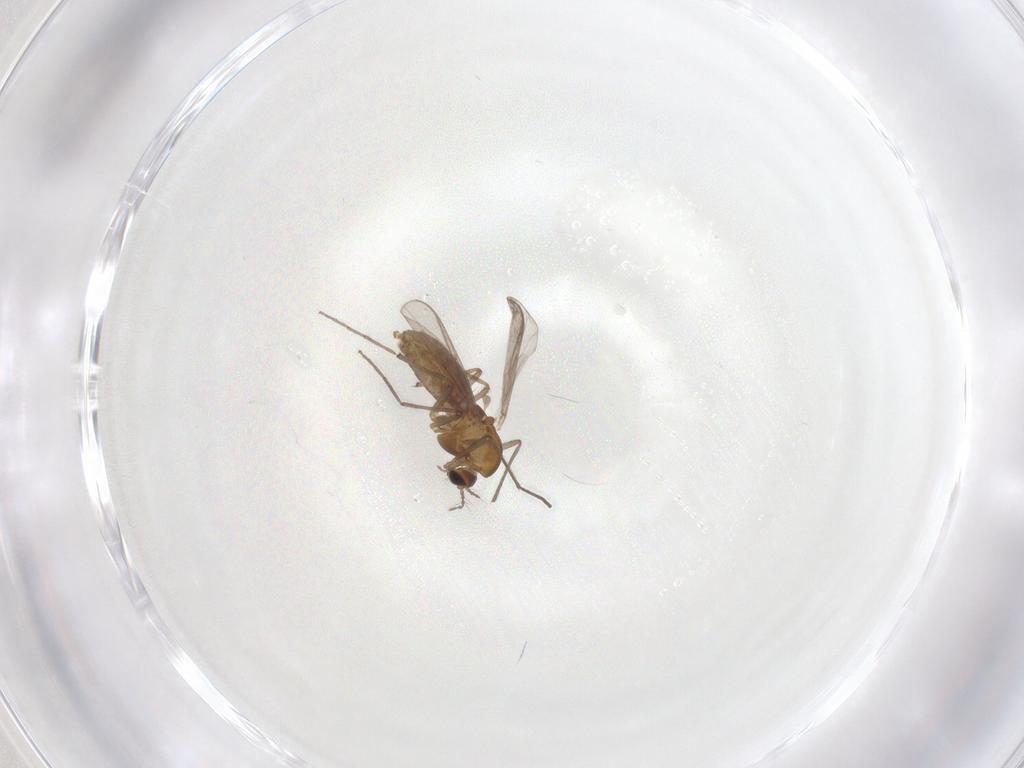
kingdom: Animalia
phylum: Arthropoda
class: Insecta
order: Diptera
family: Chironomidae
